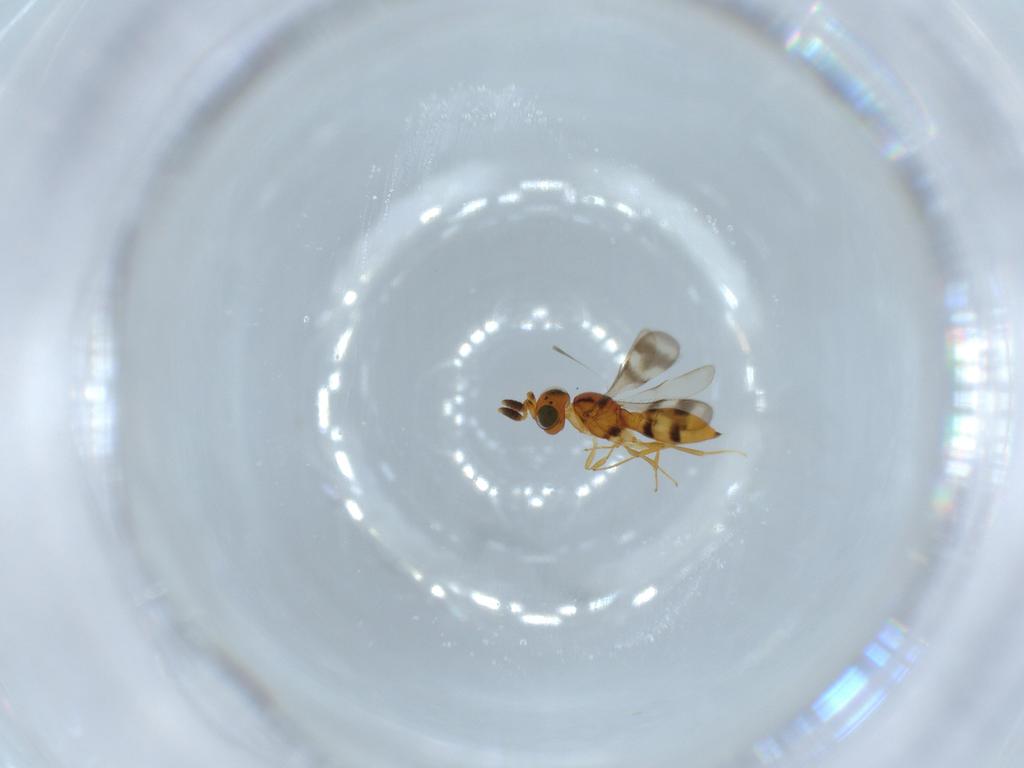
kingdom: Animalia
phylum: Arthropoda
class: Insecta
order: Hymenoptera
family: Scelionidae
